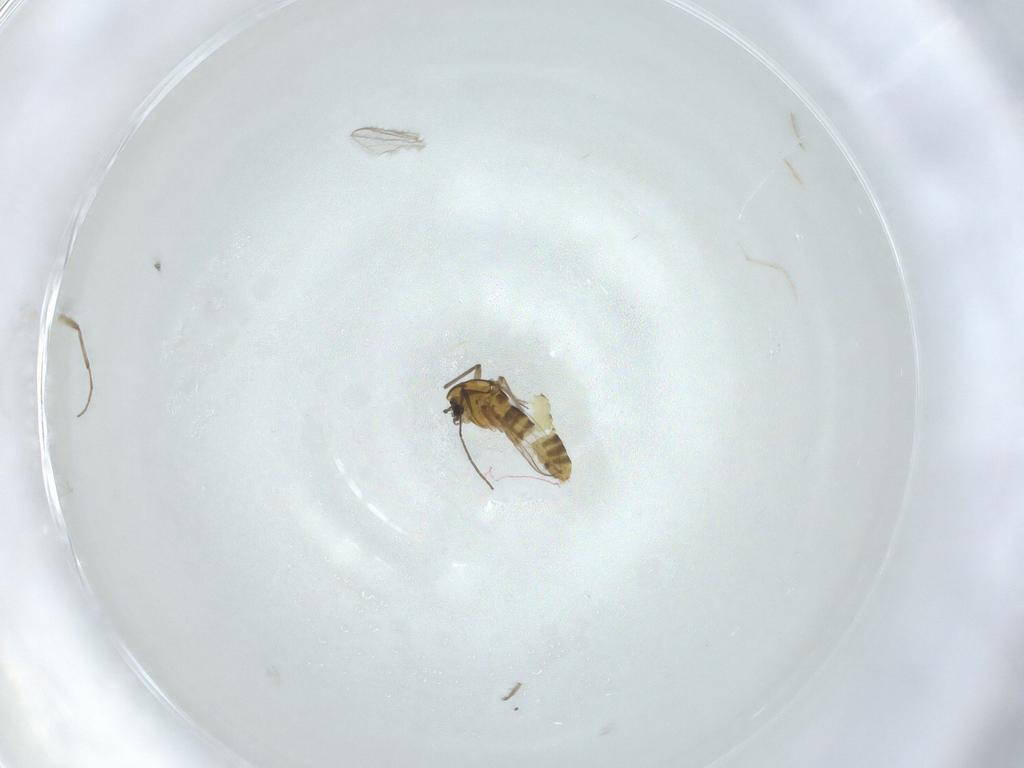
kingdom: Animalia
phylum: Arthropoda
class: Insecta
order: Diptera
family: Chironomidae
